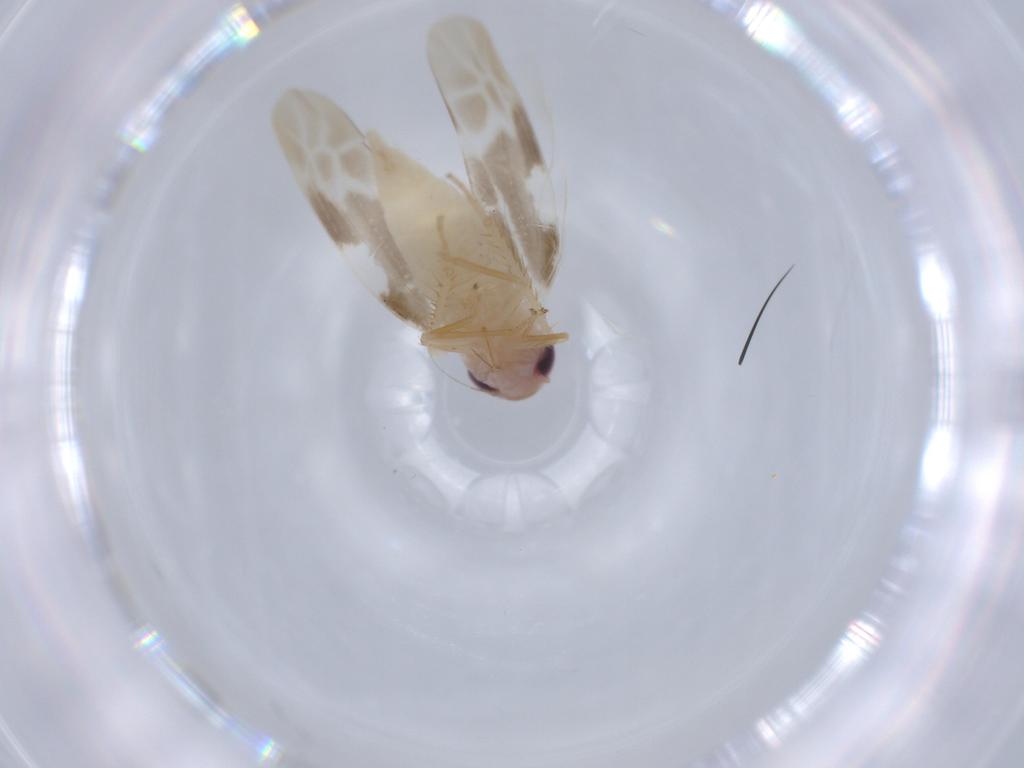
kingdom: Animalia
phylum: Arthropoda
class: Insecta
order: Hemiptera
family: Cicadellidae
